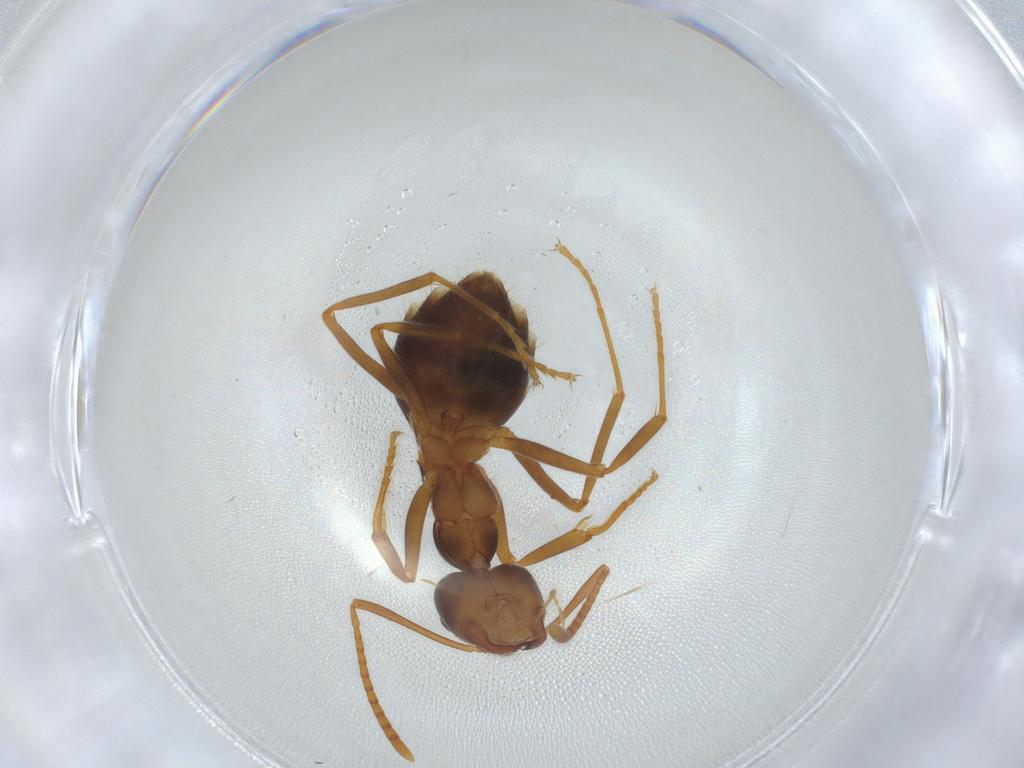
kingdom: Animalia
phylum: Arthropoda
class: Insecta
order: Hymenoptera
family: Formicidae
